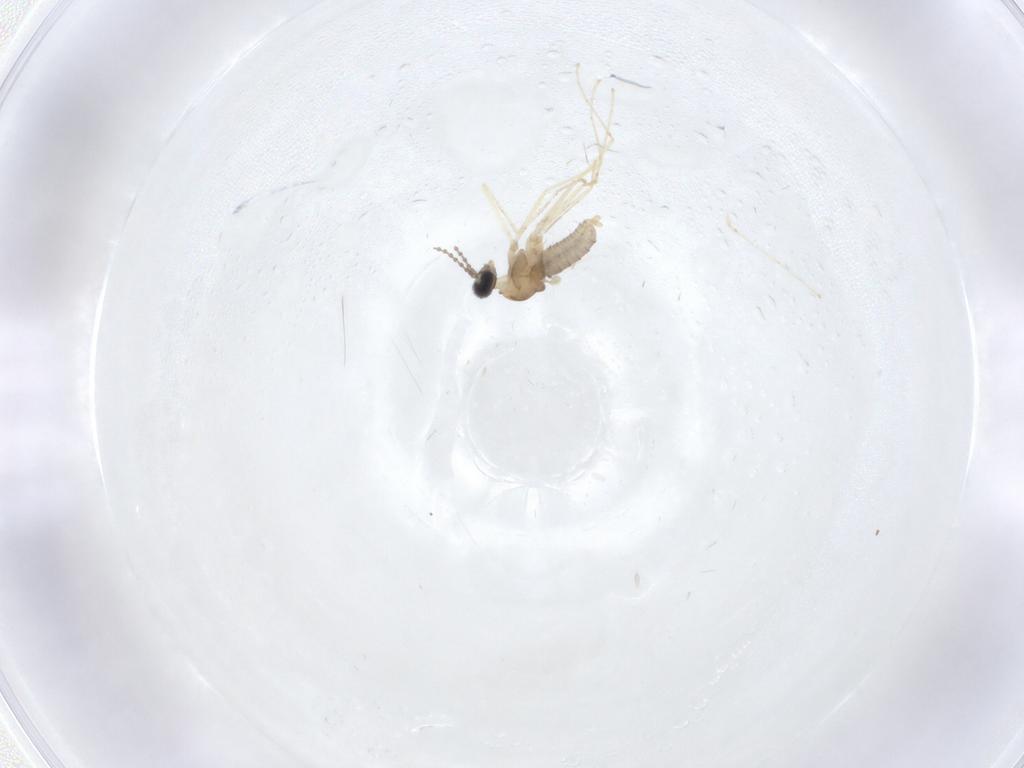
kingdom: Animalia
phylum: Arthropoda
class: Insecta
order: Diptera
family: Cecidomyiidae
